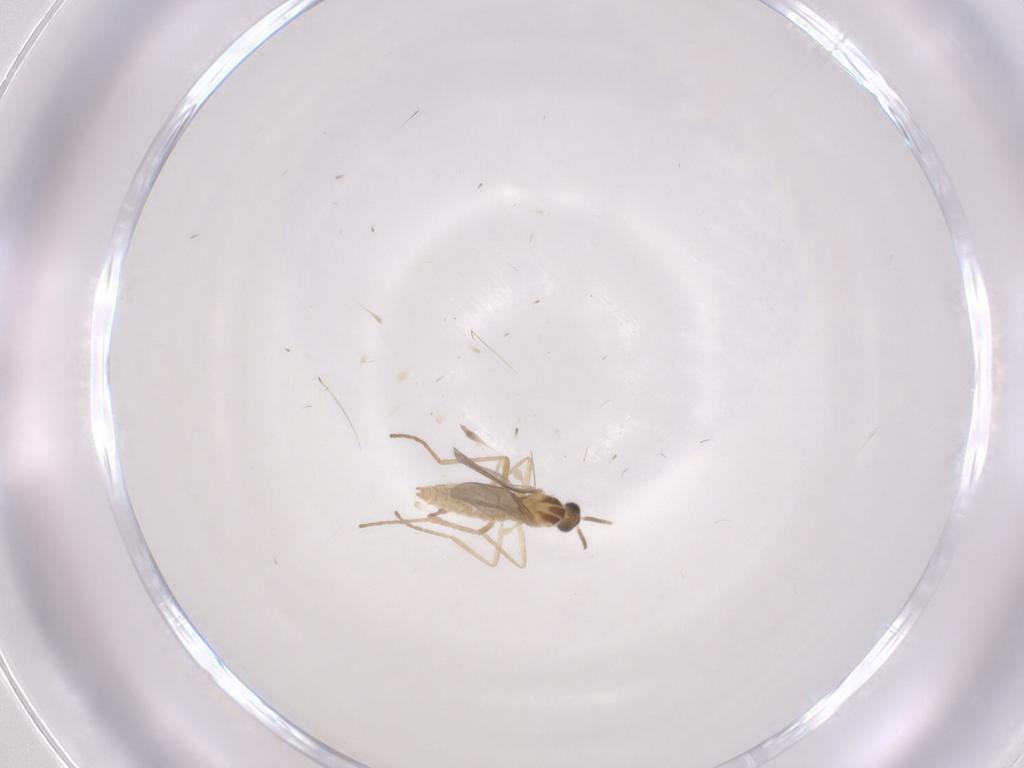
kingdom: Animalia
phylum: Arthropoda
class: Insecta
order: Diptera
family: Cecidomyiidae
